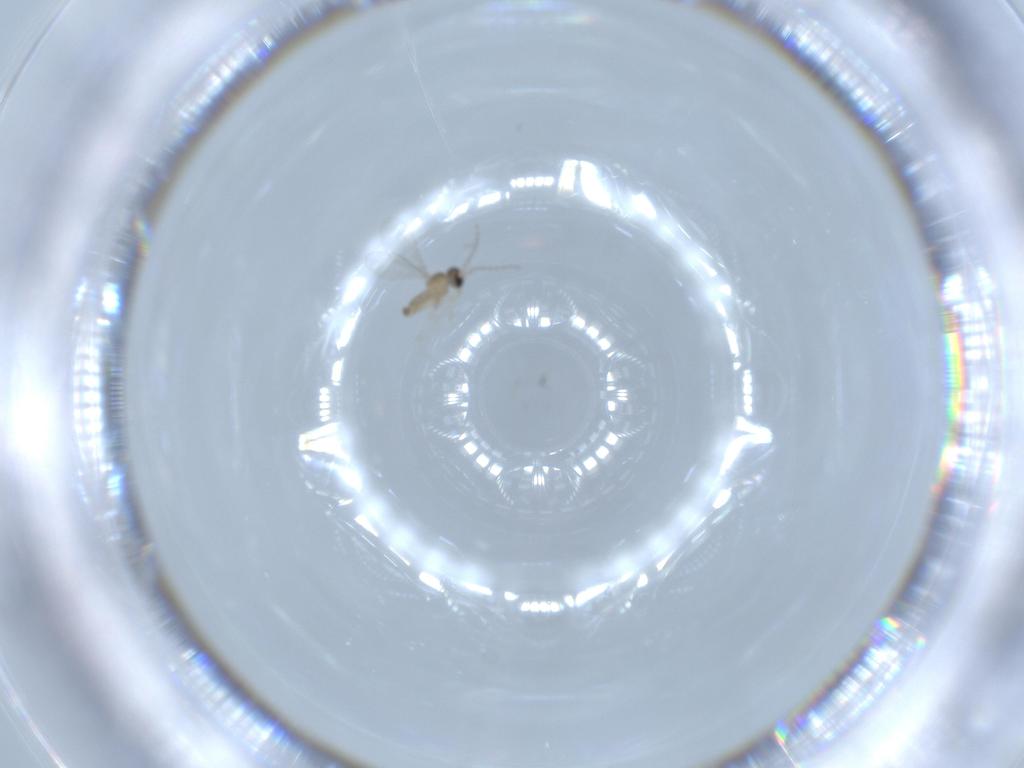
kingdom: Animalia
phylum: Arthropoda
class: Insecta
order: Diptera
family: Cecidomyiidae
